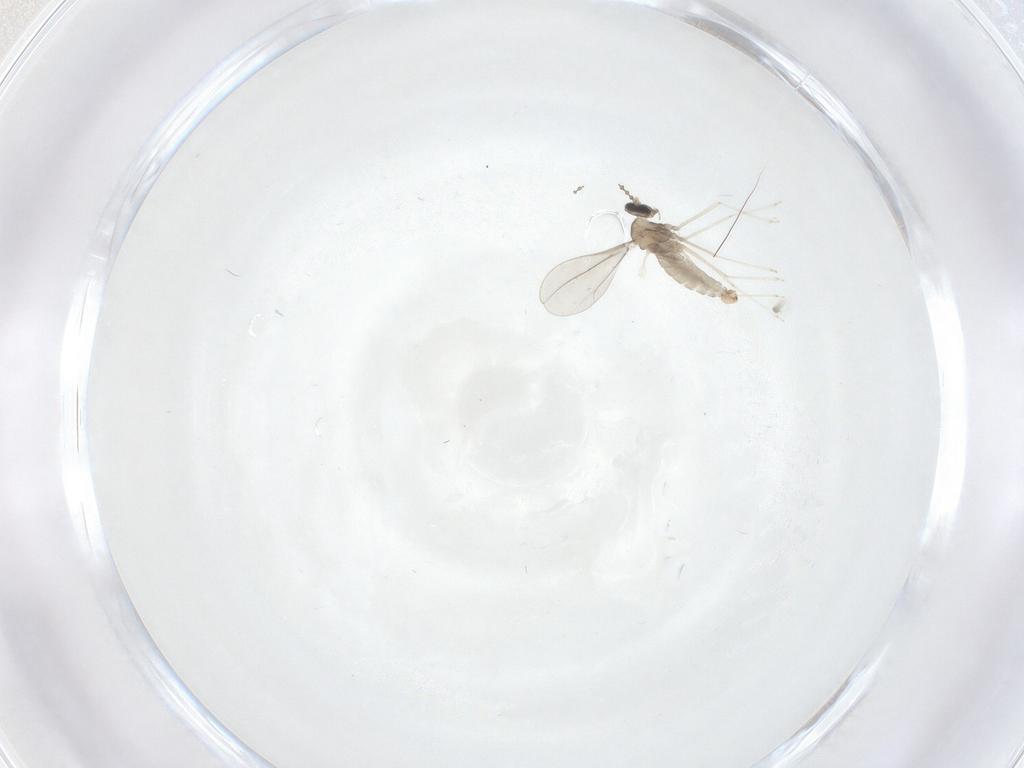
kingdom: Animalia
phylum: Arthropoda
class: Insecta
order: Diptera
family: Cecidomyiidae
